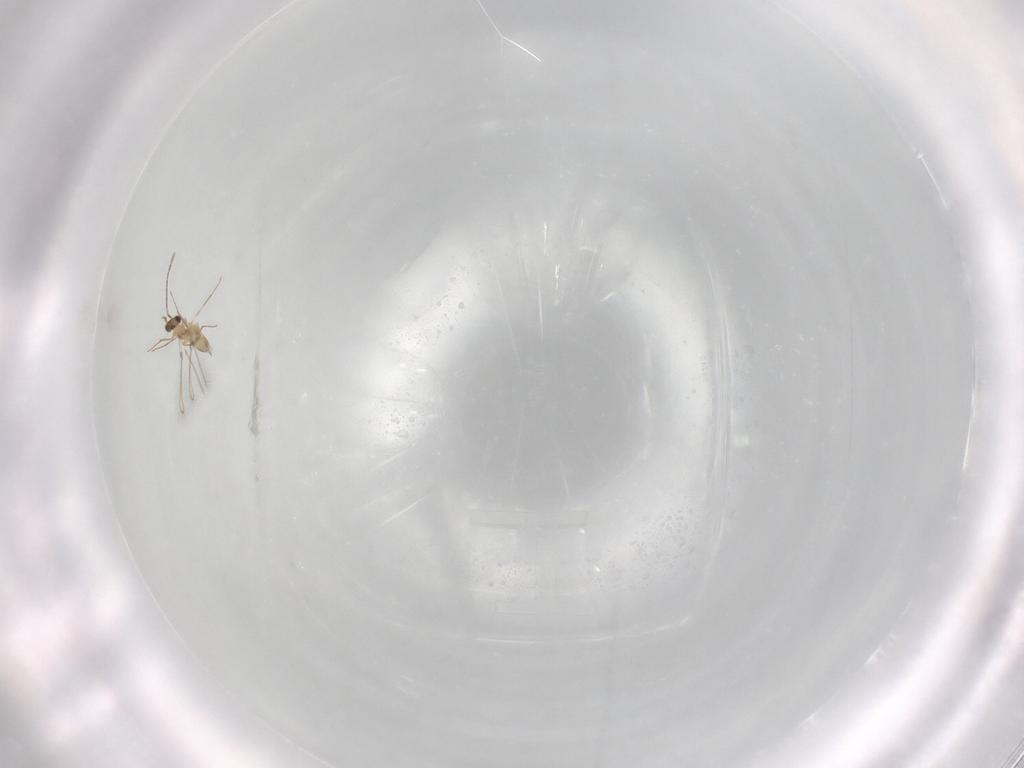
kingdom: Animalia
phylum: Arthropoda
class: Insecta
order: Hymenoptera
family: Mymaridae
